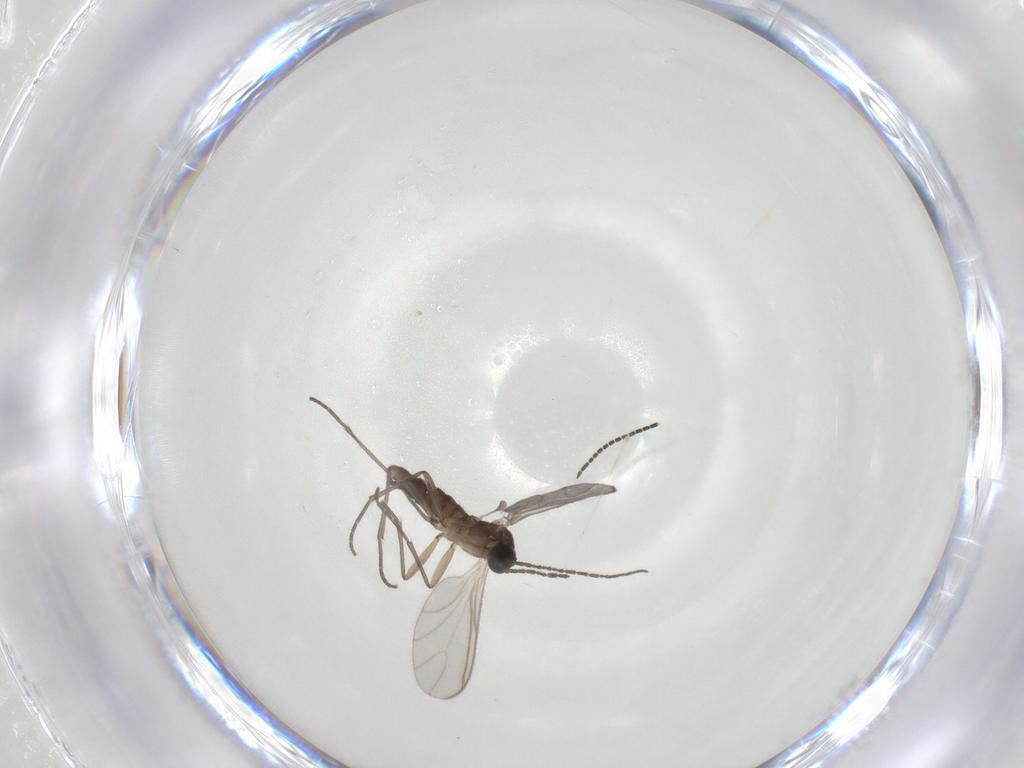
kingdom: Animalia
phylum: Arthropoda
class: Insecta
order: Diptera
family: Sciaridae
